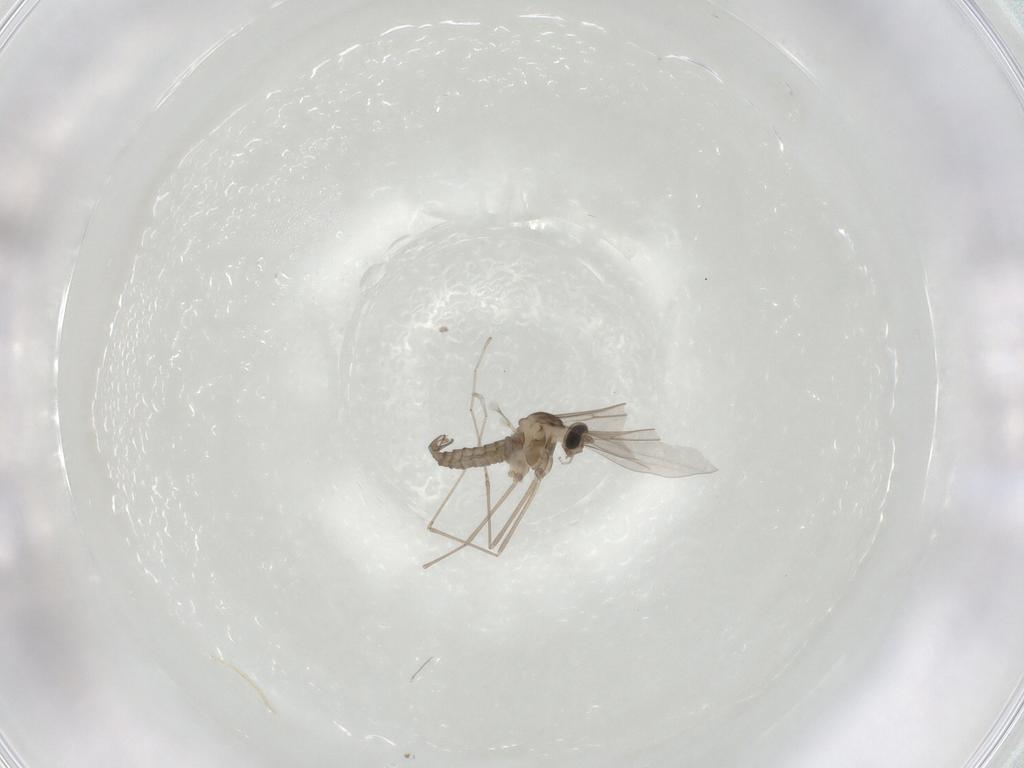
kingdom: Animalia
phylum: Arthropoda
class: Insecta
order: Diptera
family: Cecidomyiidae
